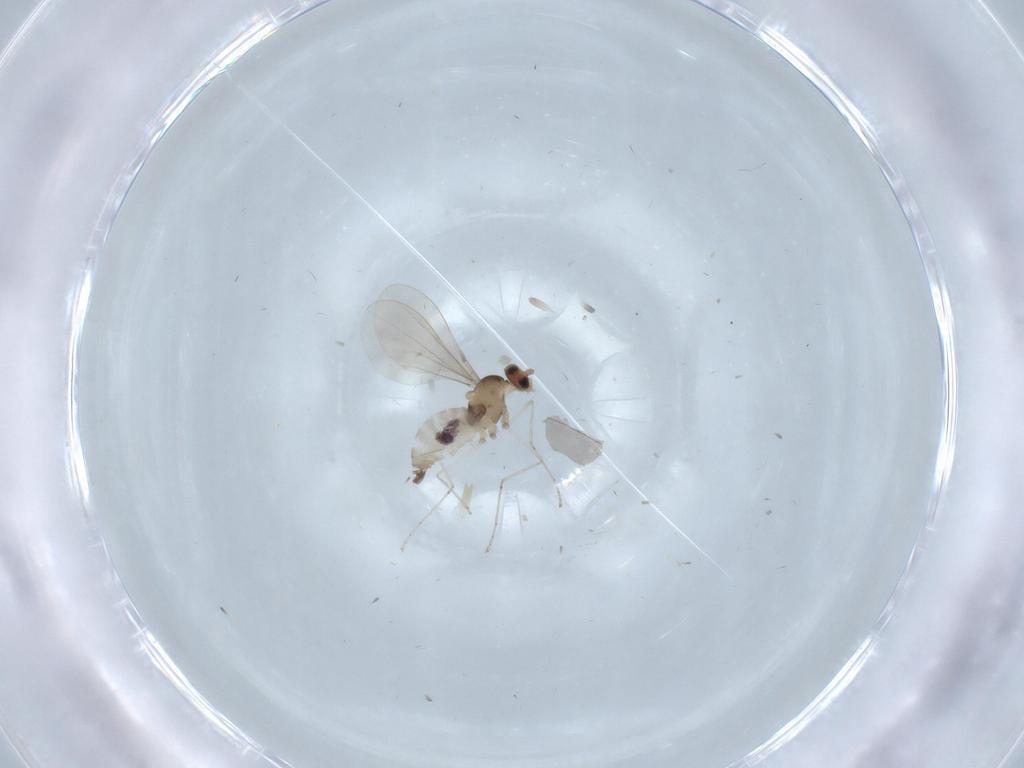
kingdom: Animalia
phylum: Arthropoda
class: Insecta
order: Diptera
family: Cecidomyiidae
